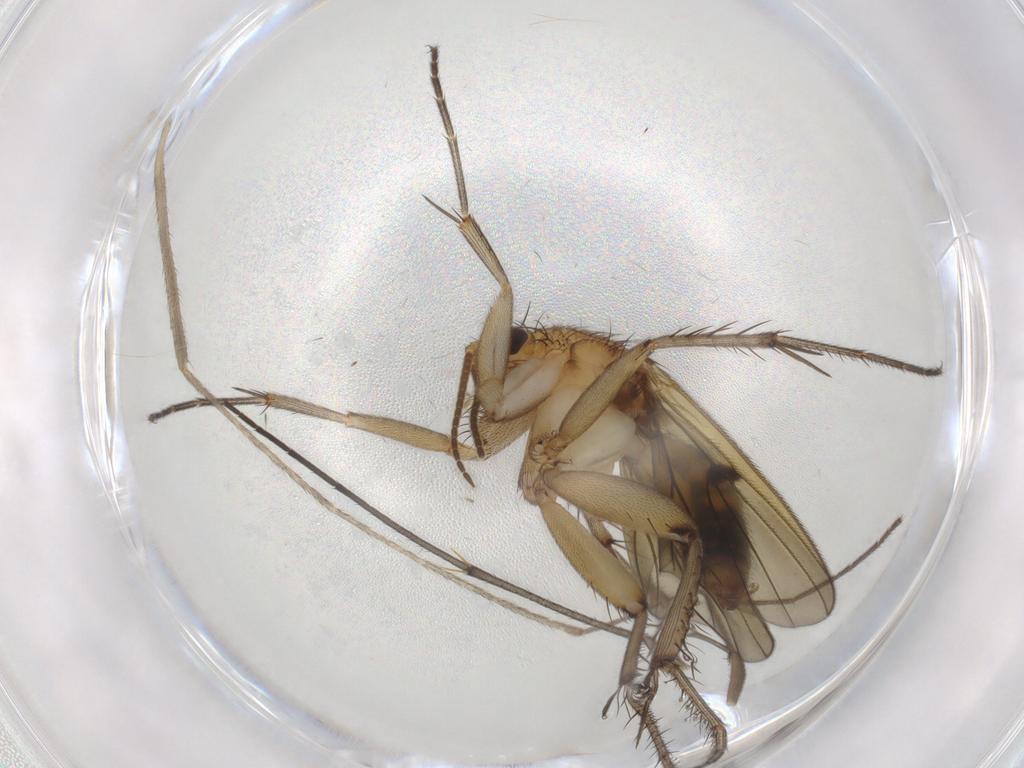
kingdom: Animalia
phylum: Arthropoda
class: Insecta
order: Diptera
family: Mycetophilidae
